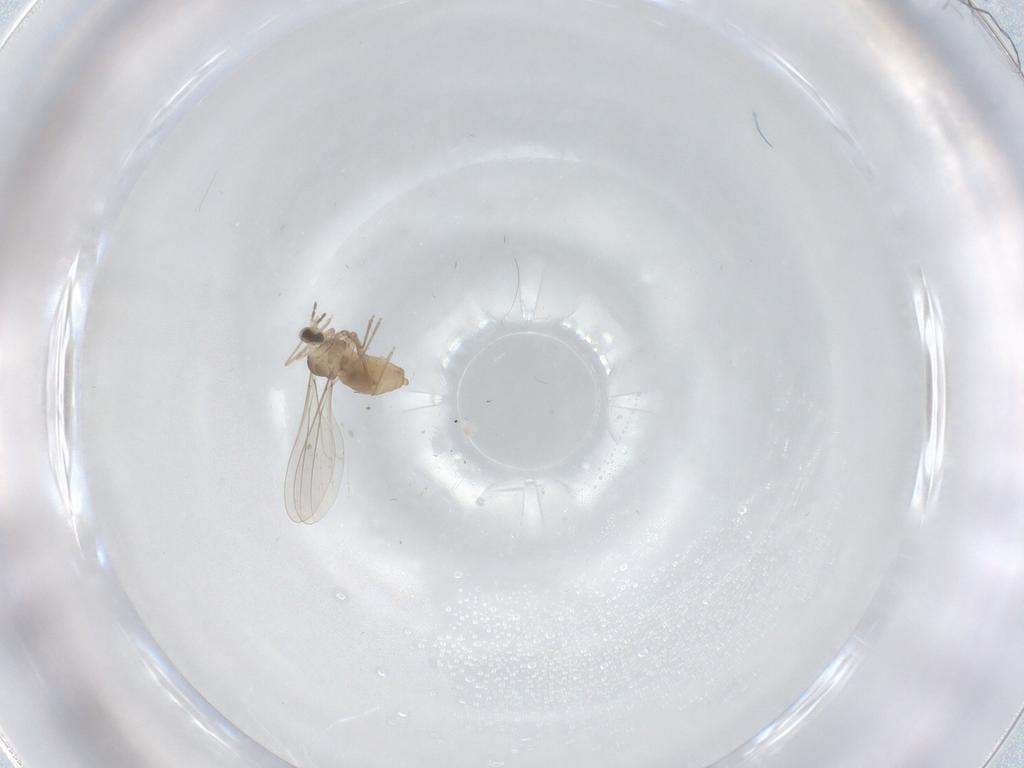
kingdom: Animalia
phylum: Arthropoda
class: Insecta
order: Diptera
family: Cecidomyiidae
